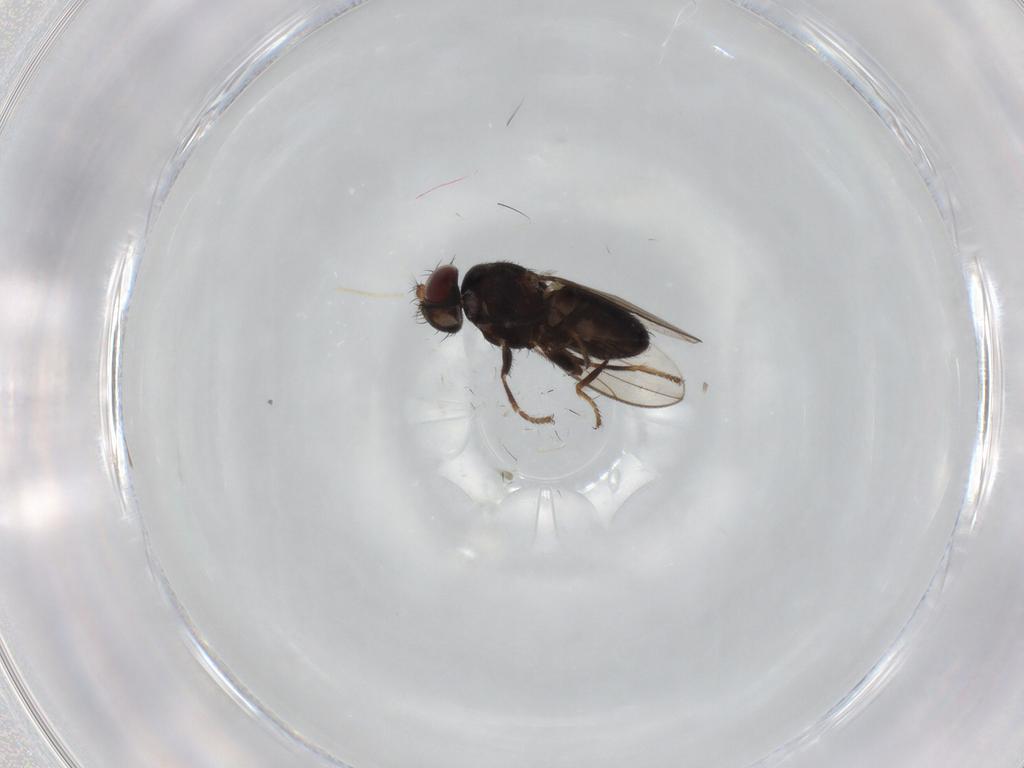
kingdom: Animalia
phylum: Arthropoda
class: Insecta
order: Diptera
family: Ephydridae
